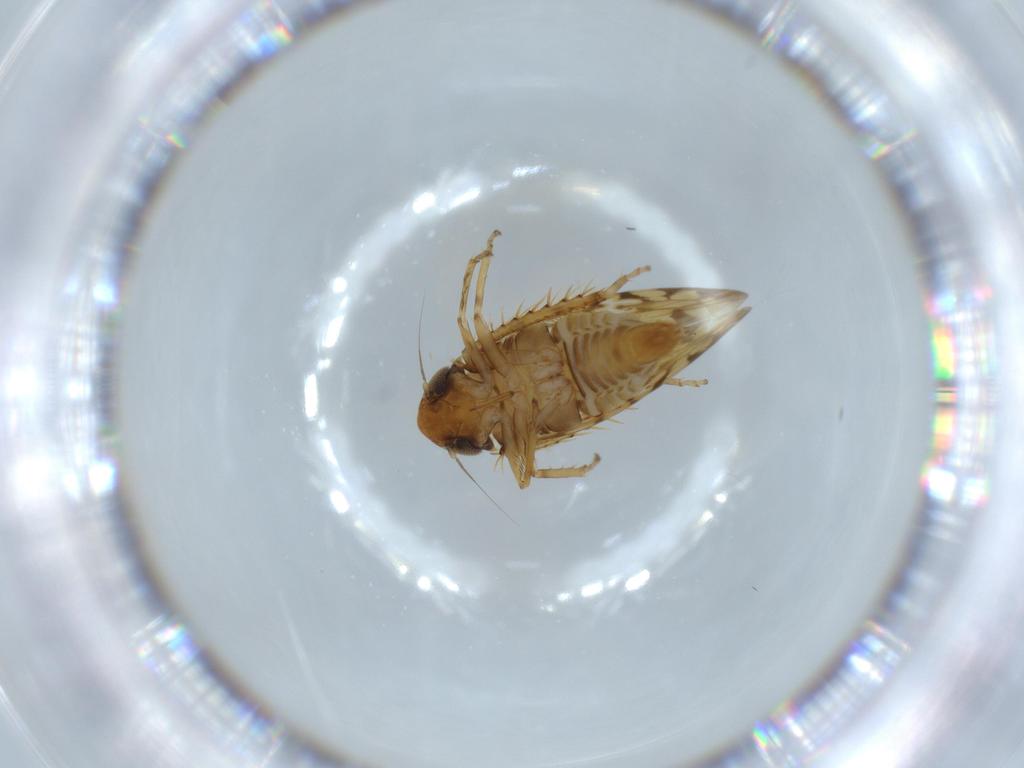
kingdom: Animalia
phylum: Arthropoda
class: Insecta
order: Hemiptera
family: Cicadellidae
